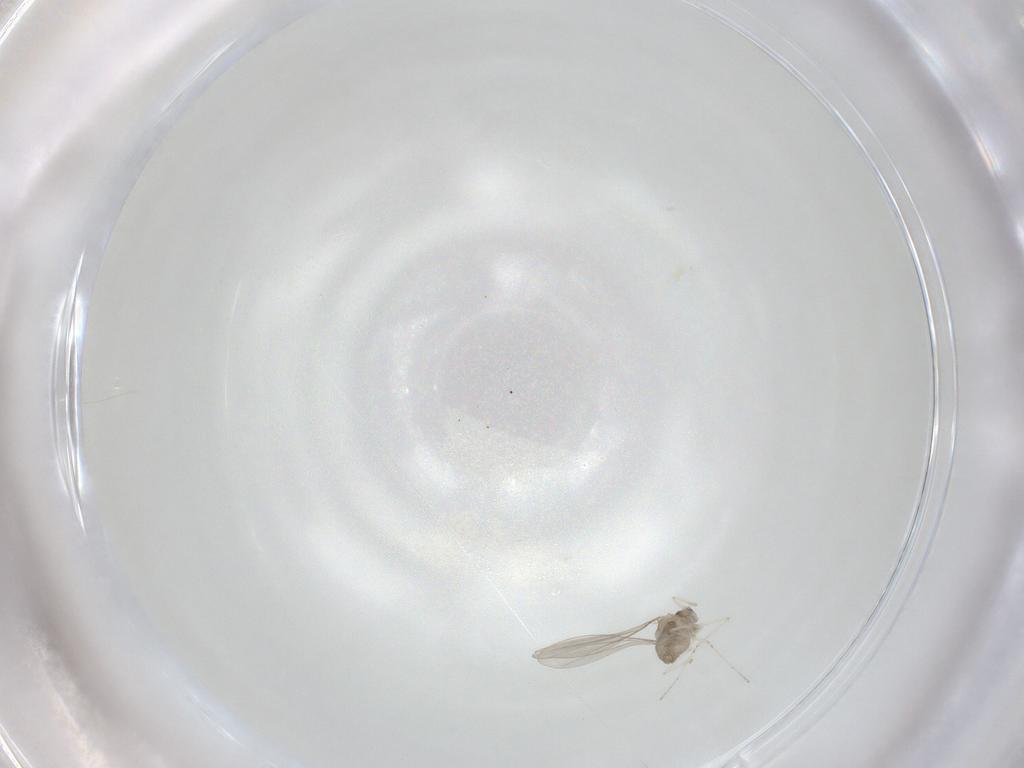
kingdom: Animalia
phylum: Arthropoda
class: Insecta
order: Diptera
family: Cecidomyiidae
